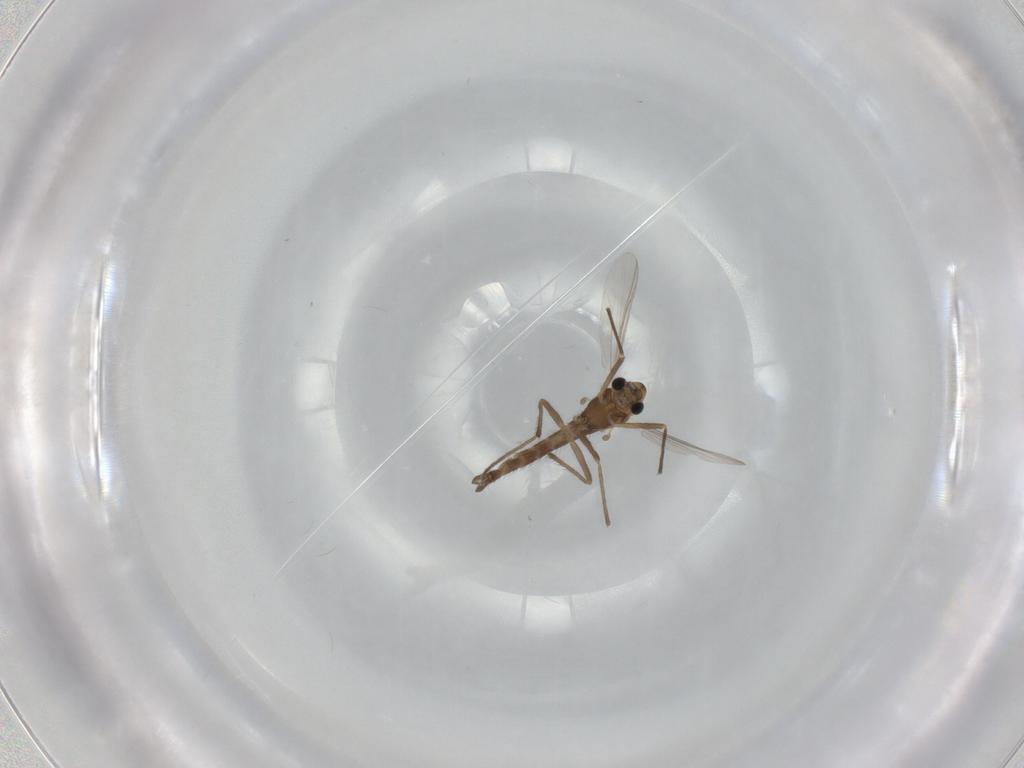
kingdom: Animalia
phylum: Arthropoda
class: Insecta
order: Diptera
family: Chironomidae
